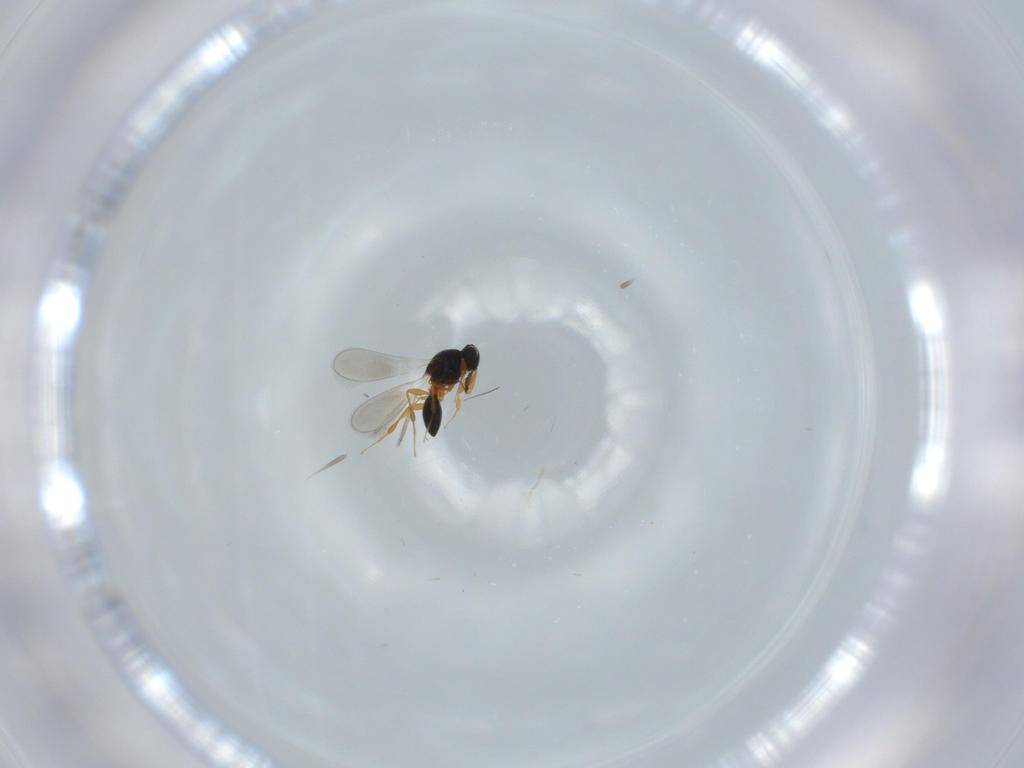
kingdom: Animalia
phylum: Arthropoda
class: Insecta
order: Hymenoptera
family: Platygastridae
